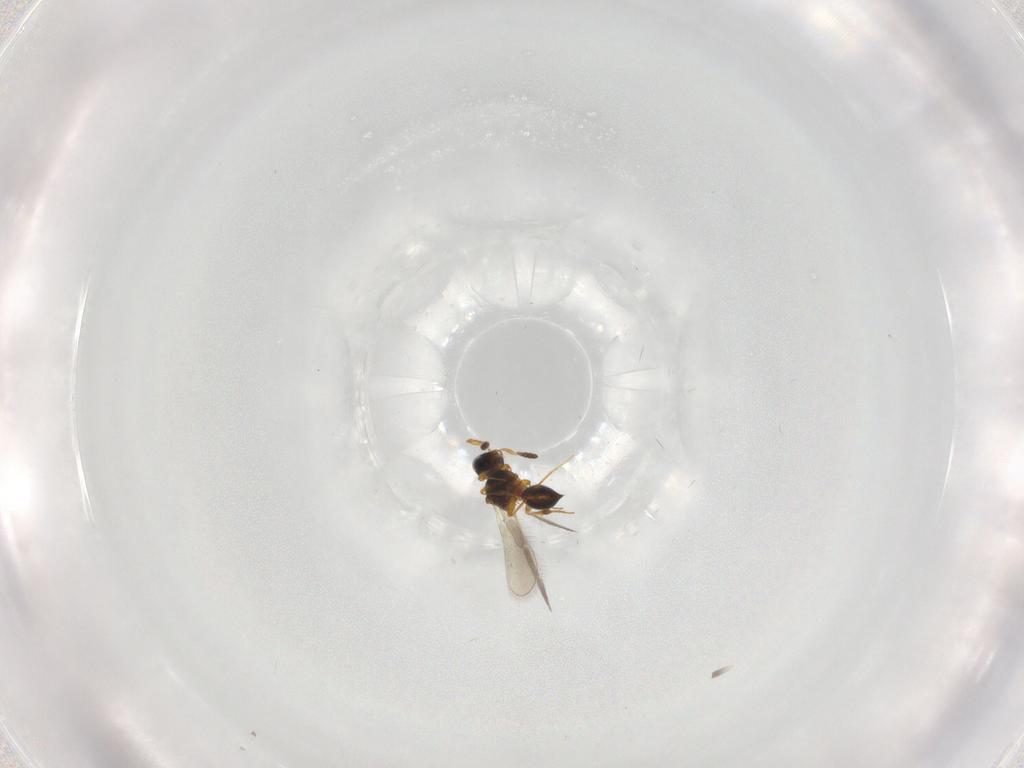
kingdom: Animalia
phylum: Arthropoda
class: Insecta
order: Hymenoptera
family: Platygastridae
